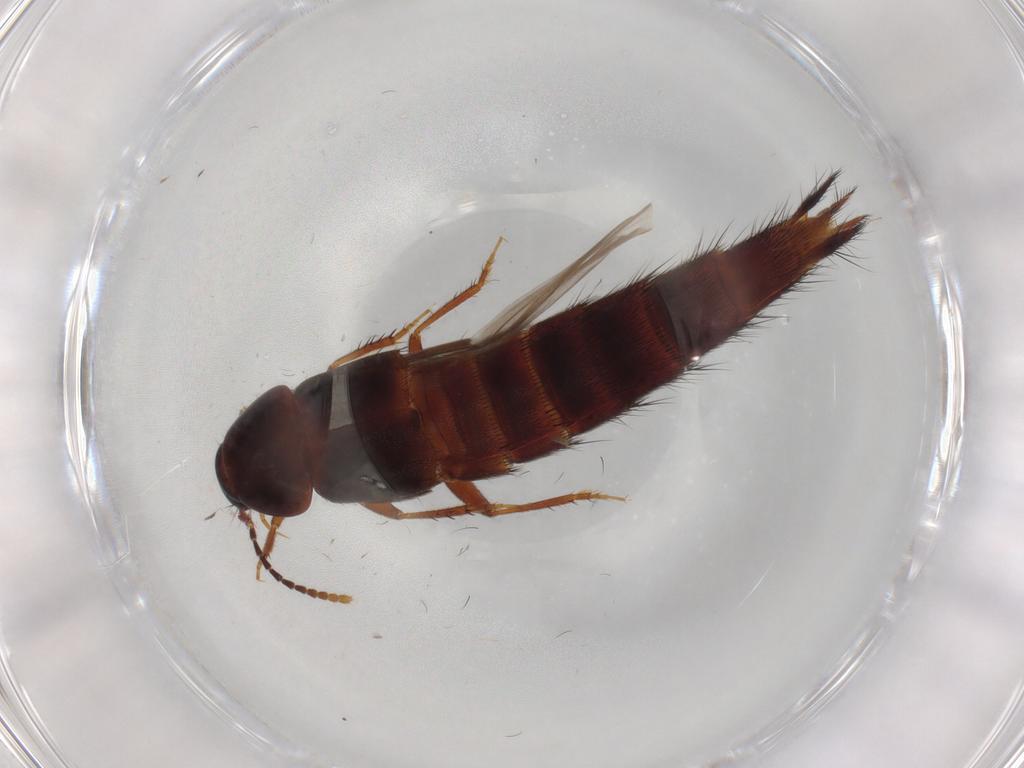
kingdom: Animalia
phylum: Arthropoda
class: Insecta
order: Coleoptera
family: Staphylinidae
